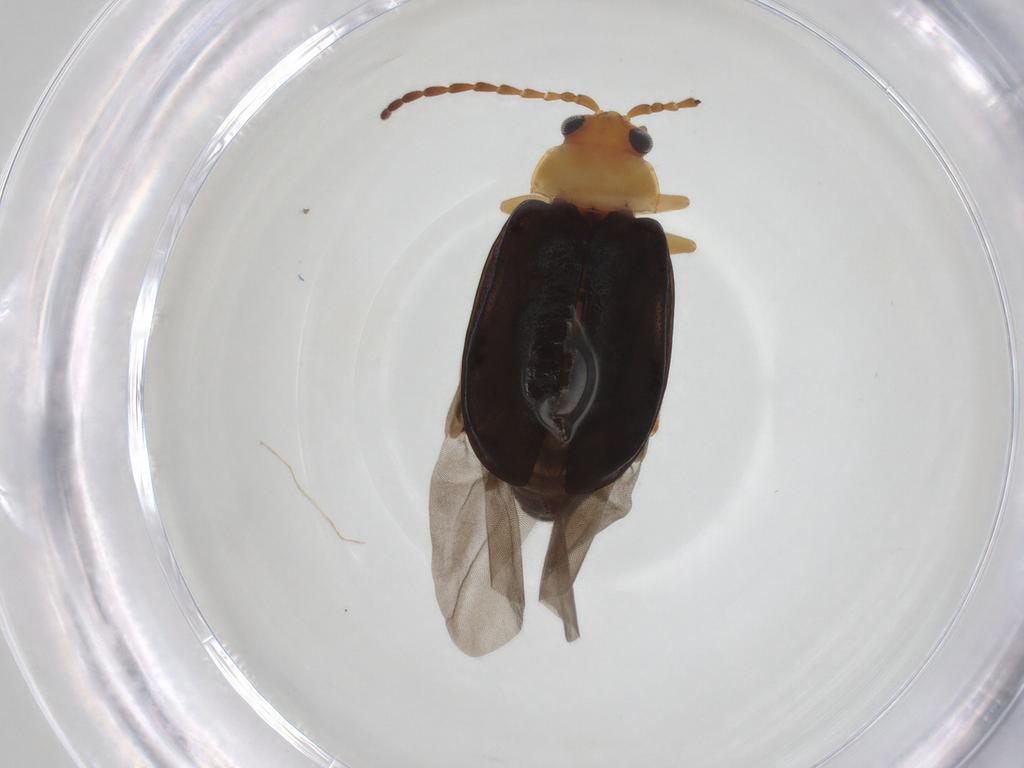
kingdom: Animalia
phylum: Arthropoda
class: Insecta
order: Coleoptera
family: Chrysomelidae
